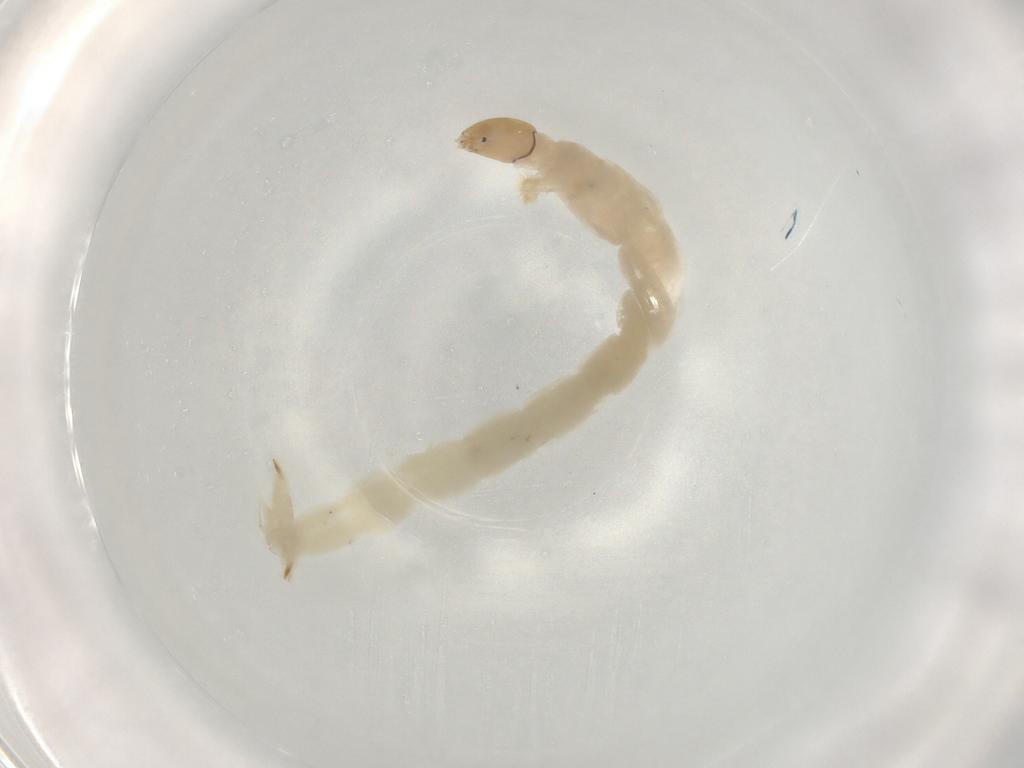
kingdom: Animalia
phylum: Arthropoda
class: Insecta
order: Diptera
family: Chironomidae
